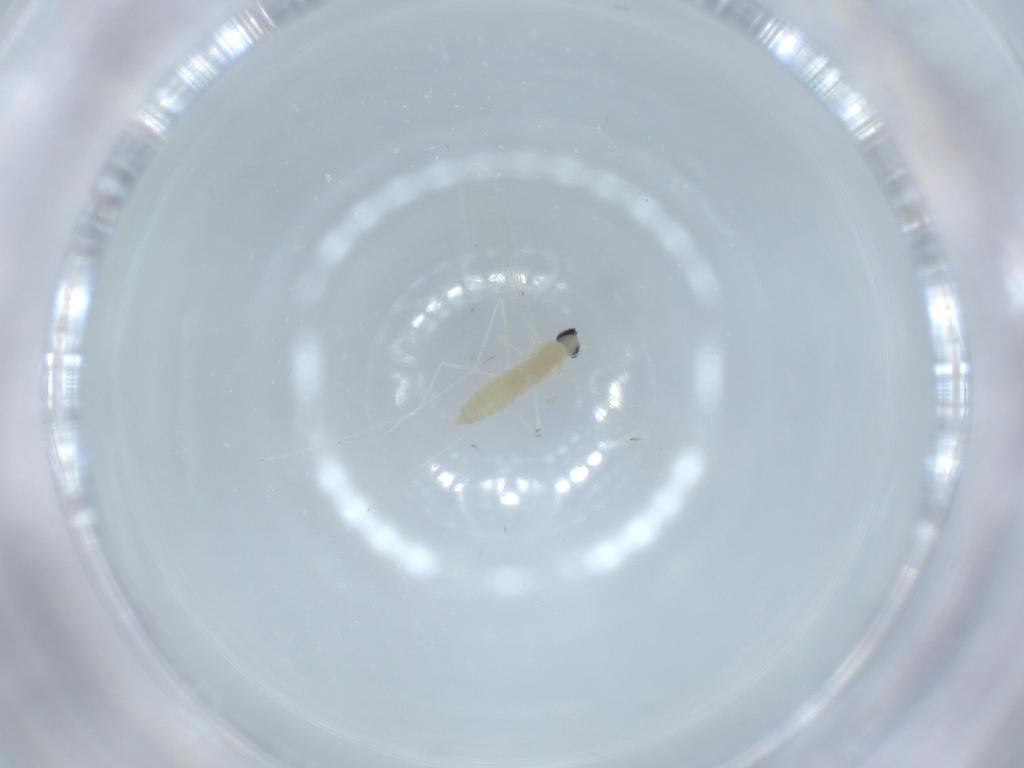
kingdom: Animalia
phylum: Arthropoda
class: Insecta
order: Diptera
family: Cecidomyiidae
